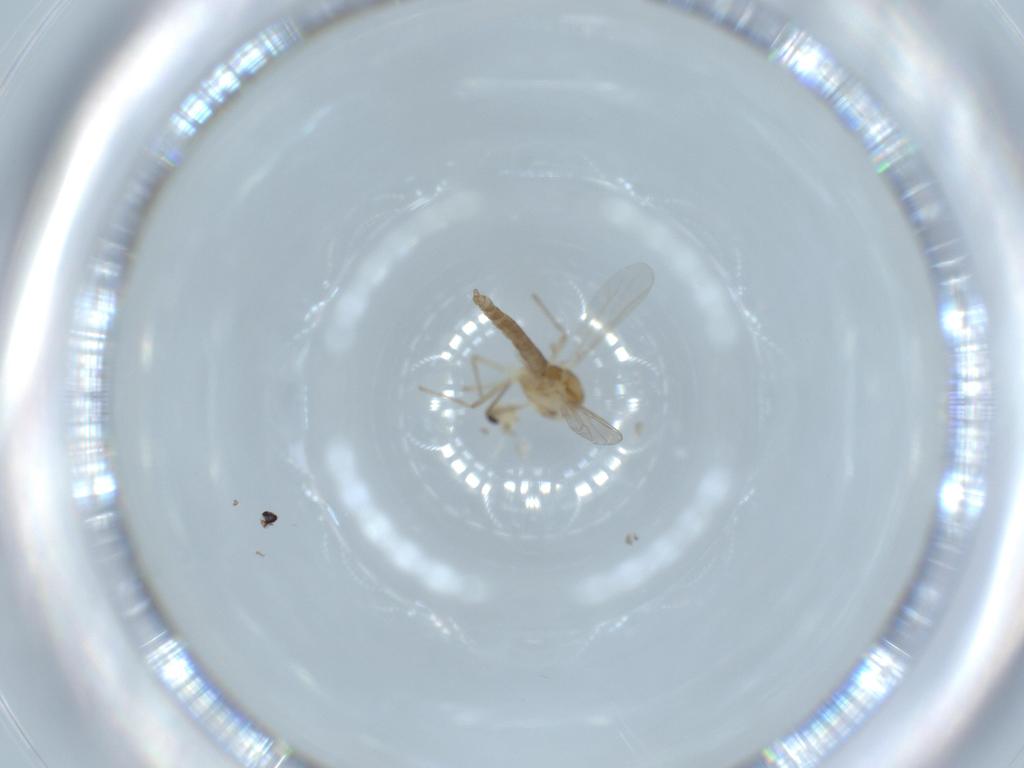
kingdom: Animalia
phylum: Arthropoda
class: Insecta
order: Diptera
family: Chironomidae
